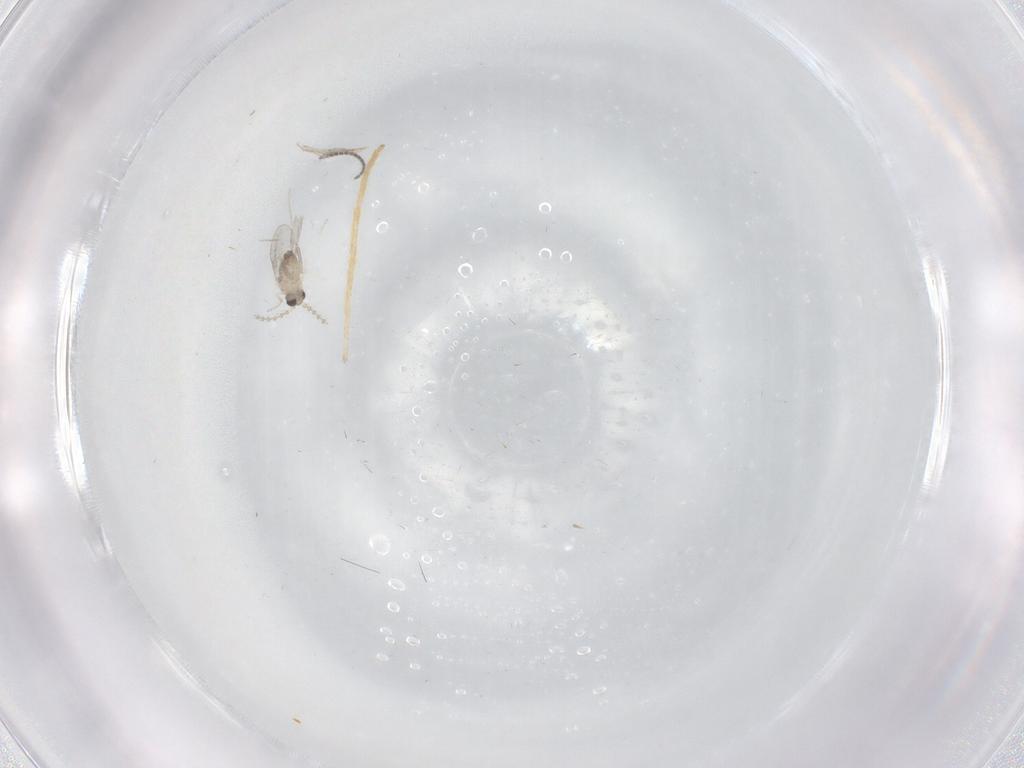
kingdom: Animalia
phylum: Arthropoda
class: Insecta
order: Diptera
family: Cecidomyiidae
